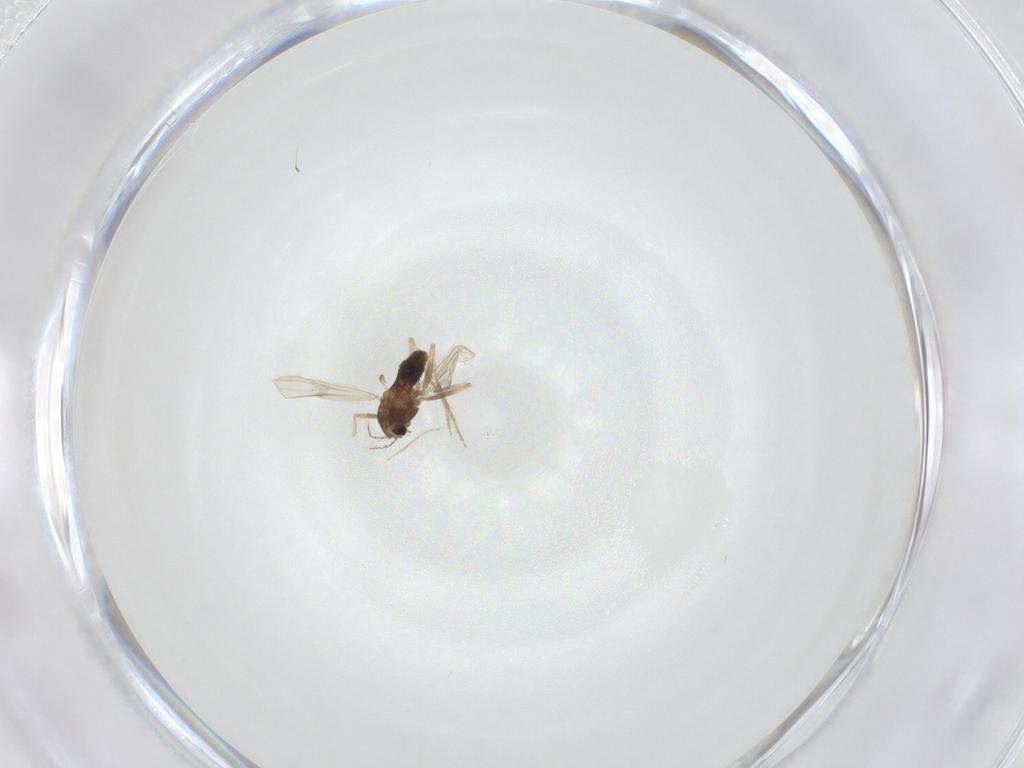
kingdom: Animalia
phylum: Arthropoda
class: Insecta
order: Diptera
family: Chironomidae
